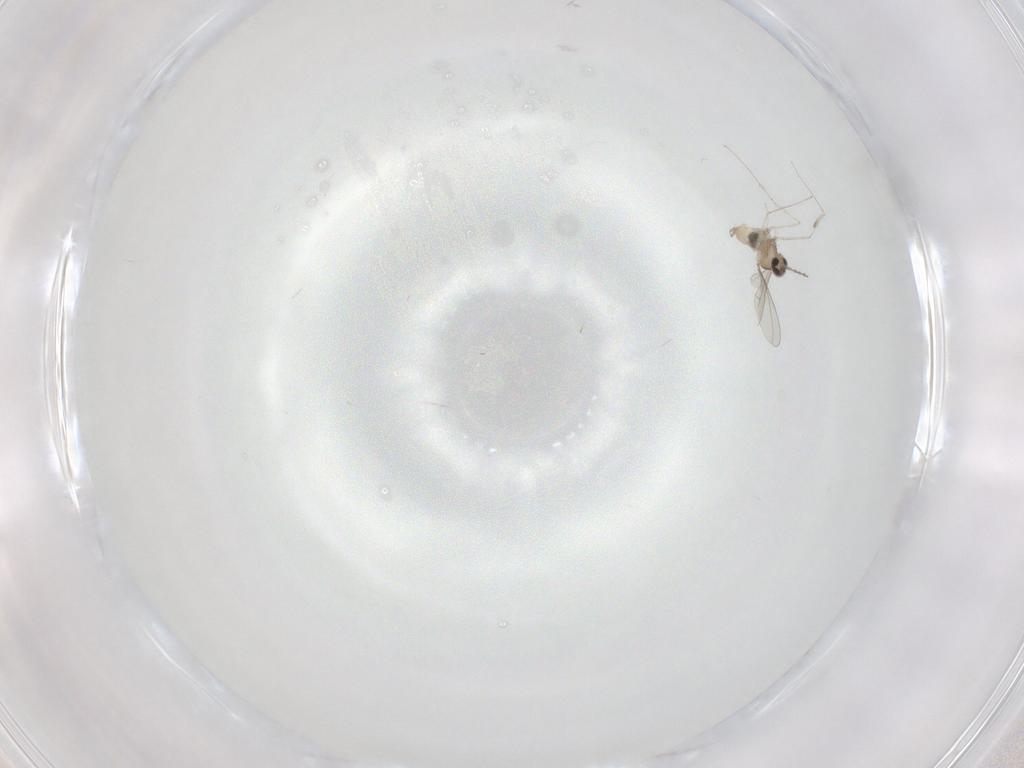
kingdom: Animalia
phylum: Arthropoda
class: Insecta
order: Diptera
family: Cecidomyiidae
